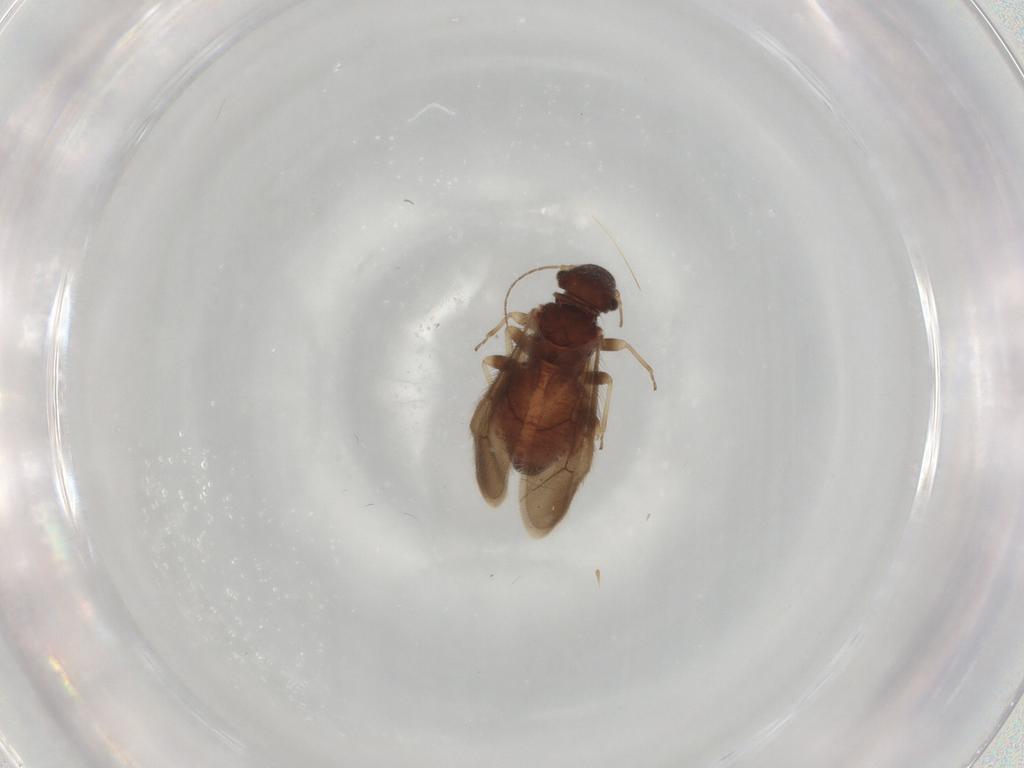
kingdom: Animalia
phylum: Arthropoda
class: Insecta
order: Psocodea
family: Archipsocidae
